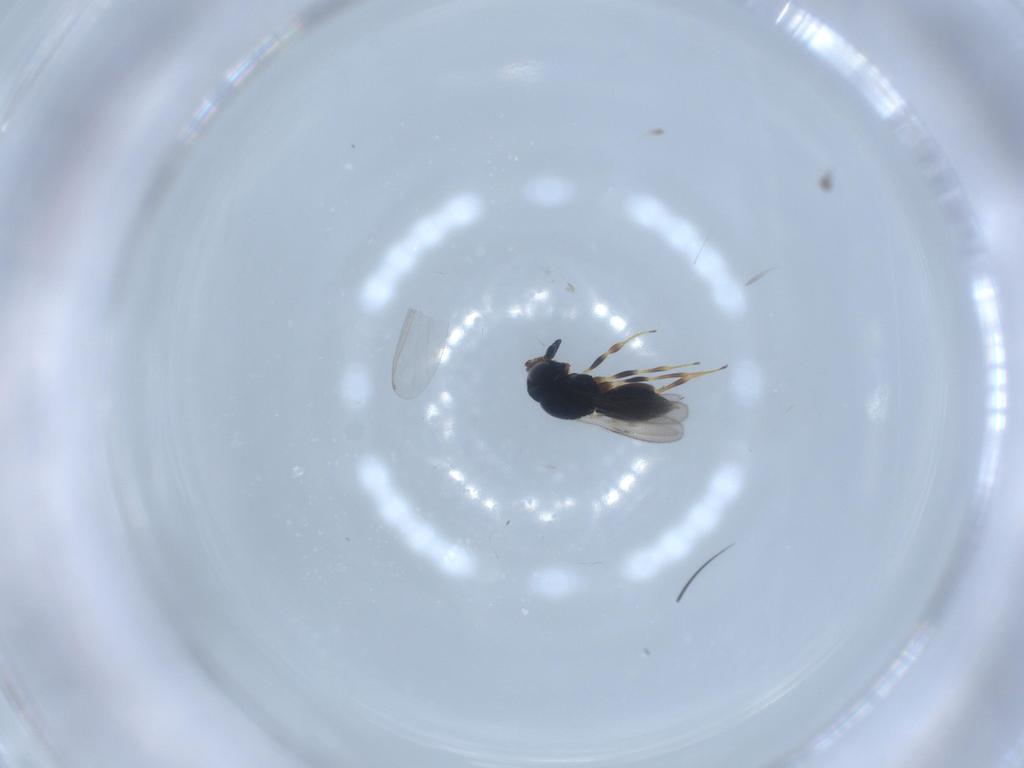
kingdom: Animalia
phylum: Arthropoda
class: Insecta
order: Hymenoptera
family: Scelionidae
